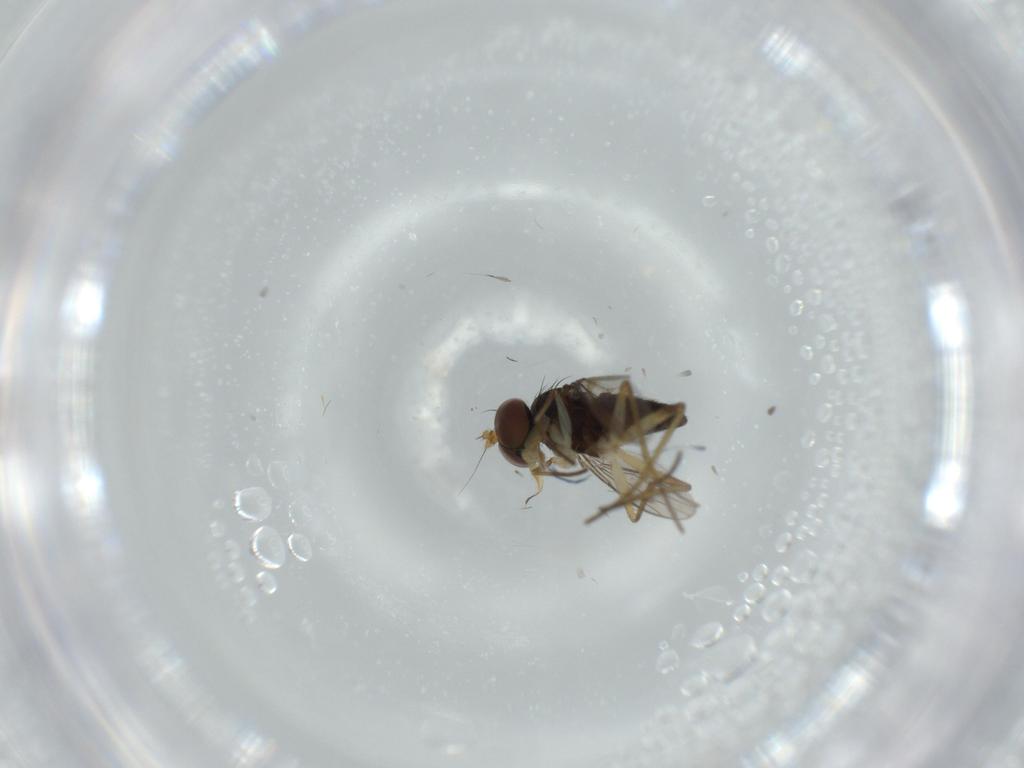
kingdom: Animalia
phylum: Arthropoda
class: Insecta
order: Diptera
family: Dolichopodidae
